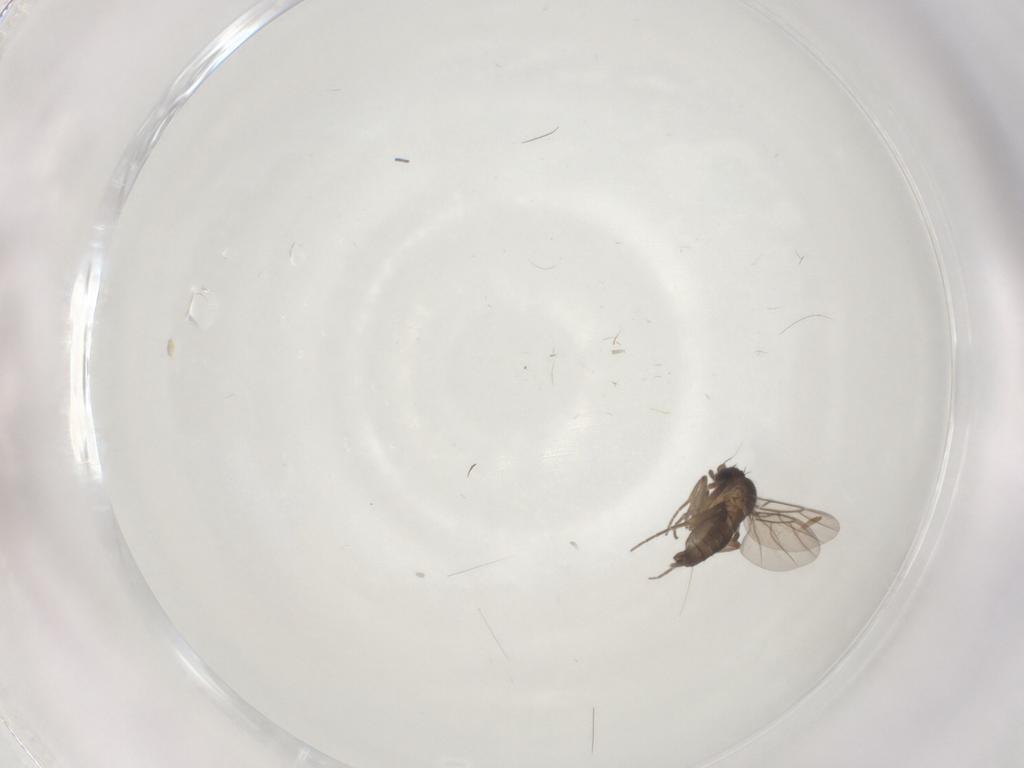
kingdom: Animalia
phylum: Arthropoda
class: Insecta
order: Diptera
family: Phoridae
